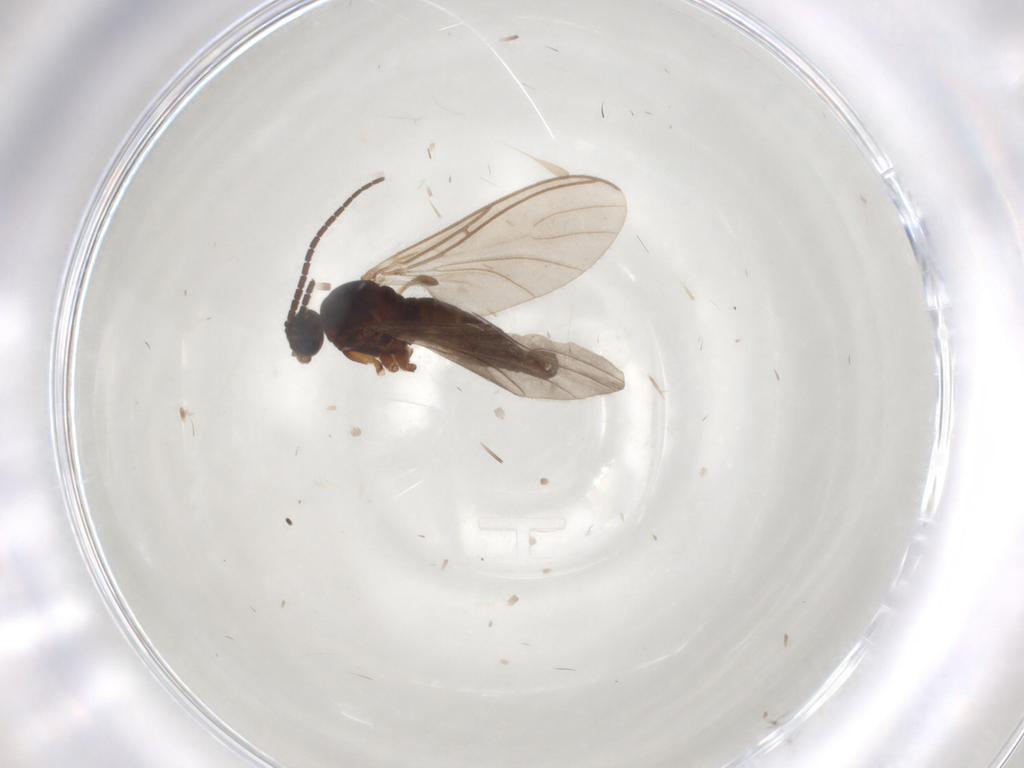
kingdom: Animalia
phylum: Arthropoda
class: Insecta
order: Diptera
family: Sciaridae
